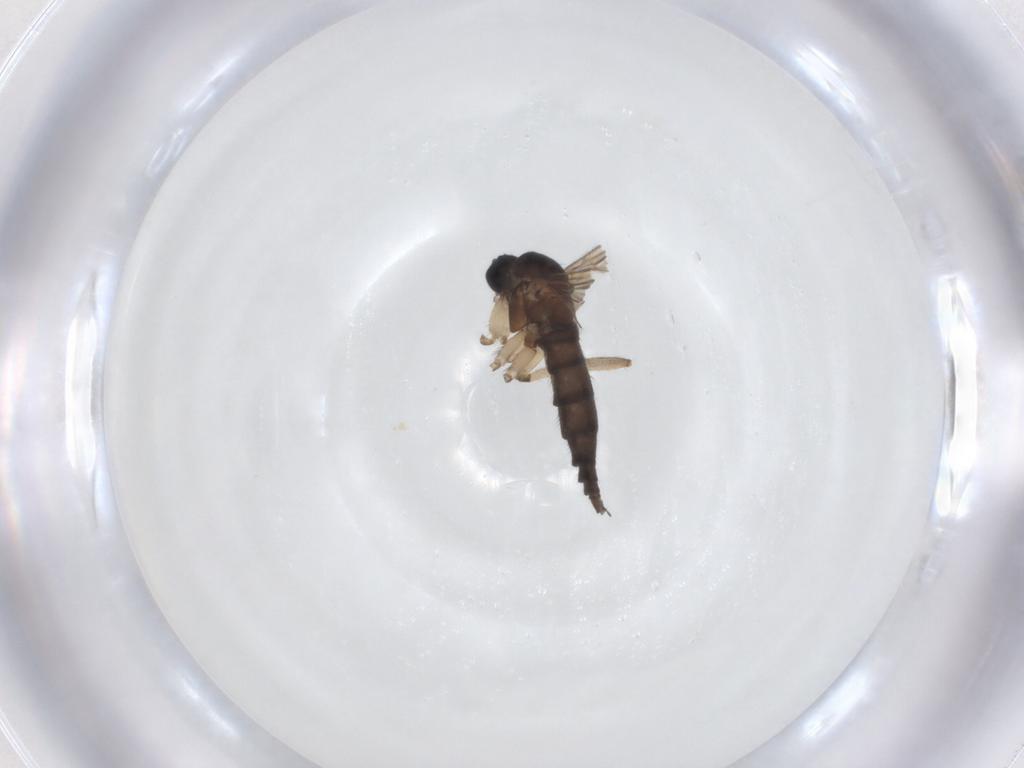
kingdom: Animalia
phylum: Arthropoda
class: Insecta
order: Diptera
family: Sciaridae
